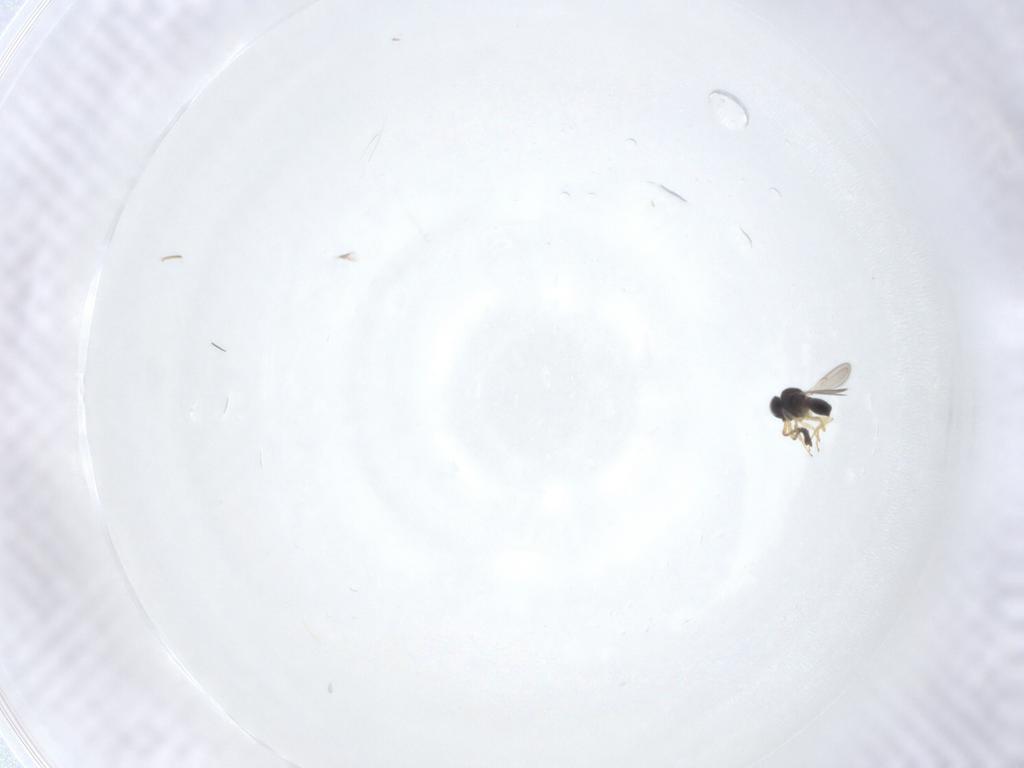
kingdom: Animalia
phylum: Arthropoda
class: Insecta
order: Hymenoptera
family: Scelionidae
